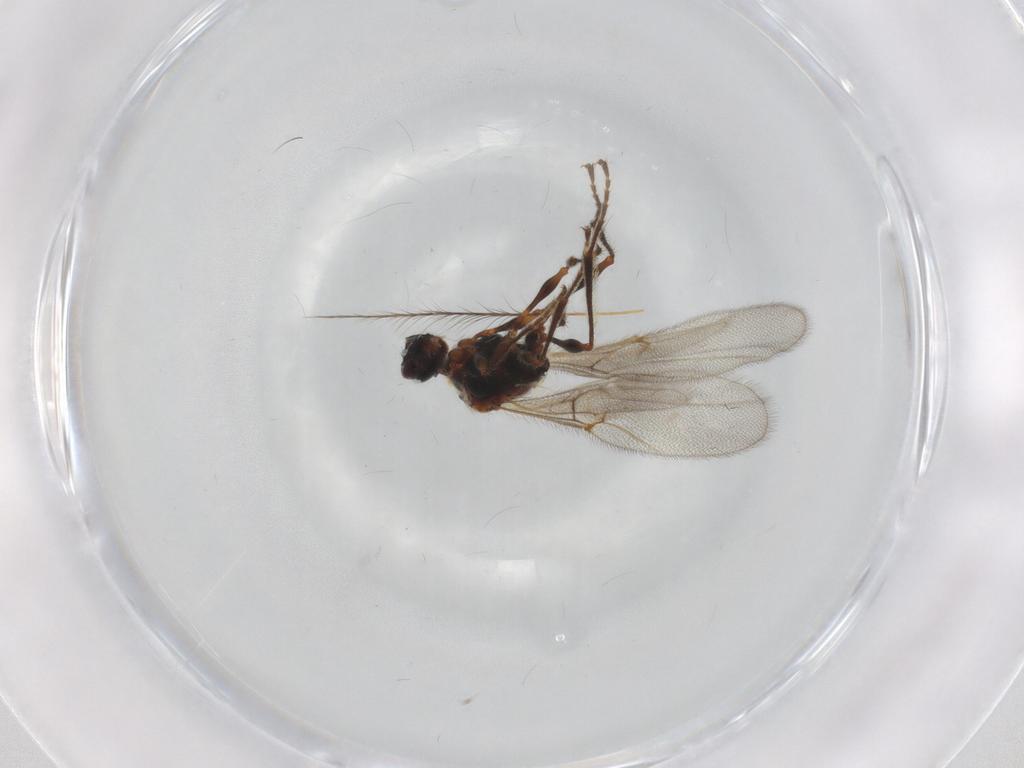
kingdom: Animalia
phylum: Arthropoda
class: Insecta
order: Hymenoptera
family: Diapriidae
